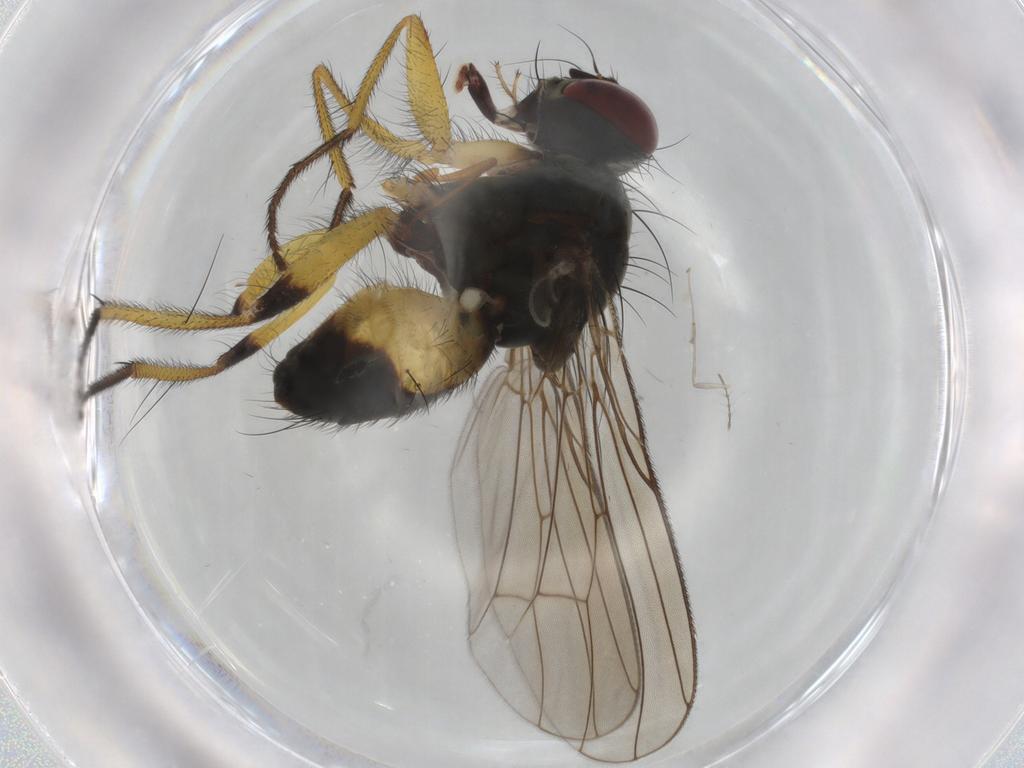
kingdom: Animalia
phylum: Arthropoda
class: Insecta
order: Diptera
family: Muscidae
